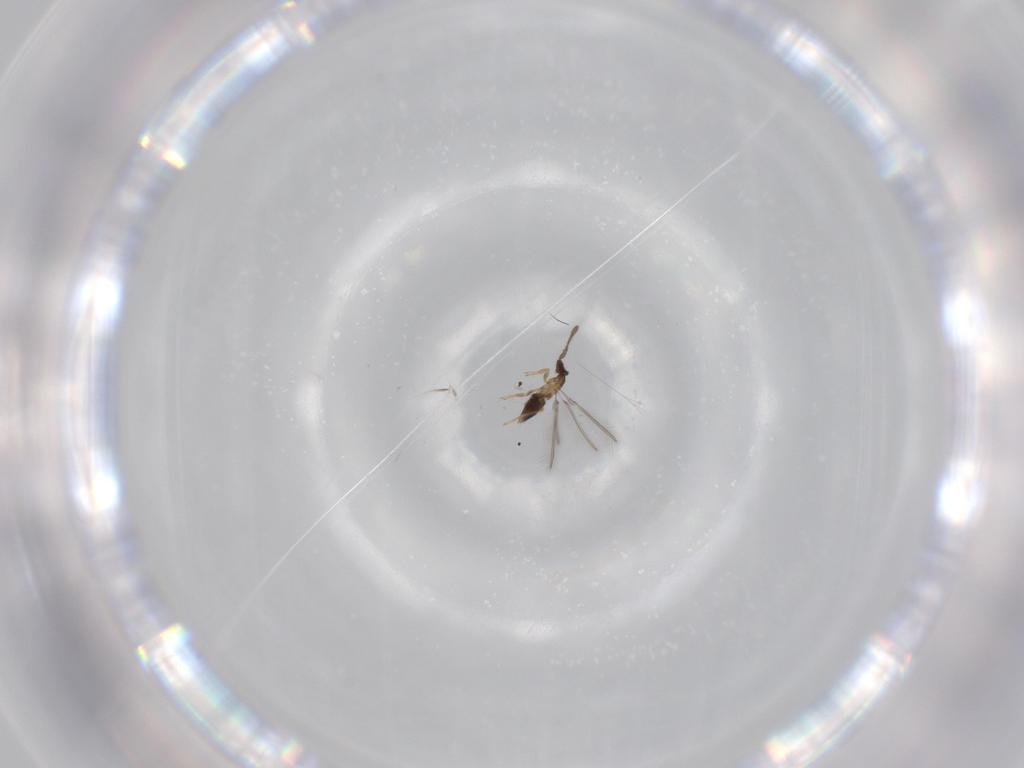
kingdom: Animalia
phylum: Arthropoda
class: Insecta
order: Hymenoptera
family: Mymaridae
